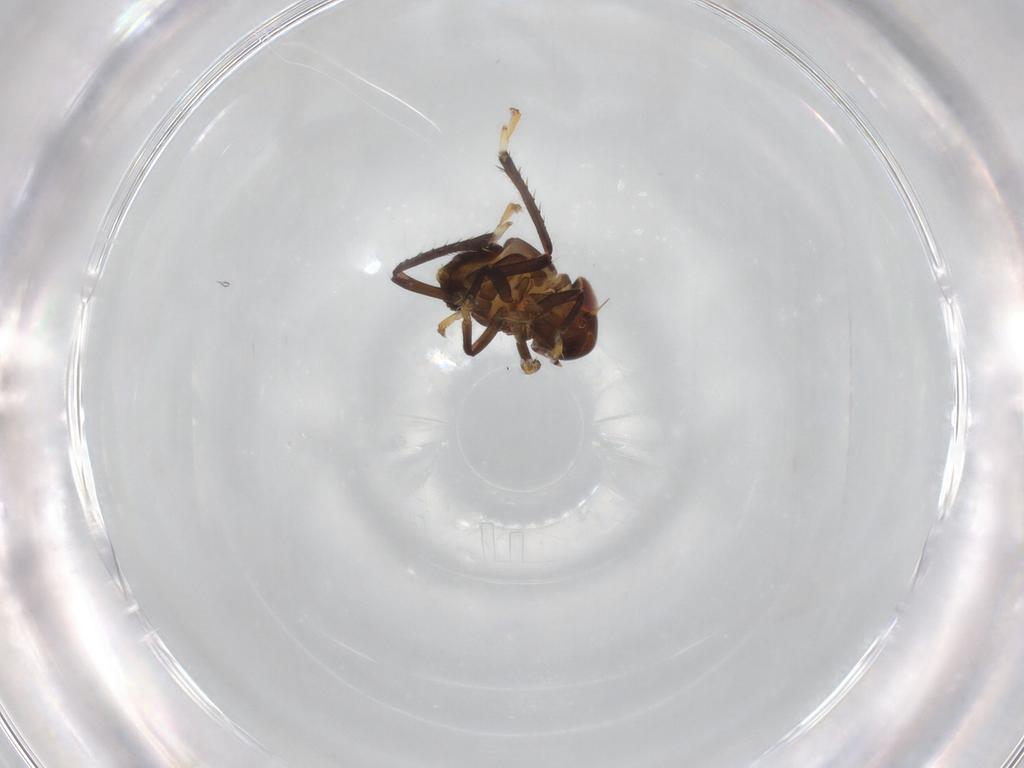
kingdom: Animalia
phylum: Arthropoda
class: Insecta
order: Hemiptera
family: Cicadellidae
